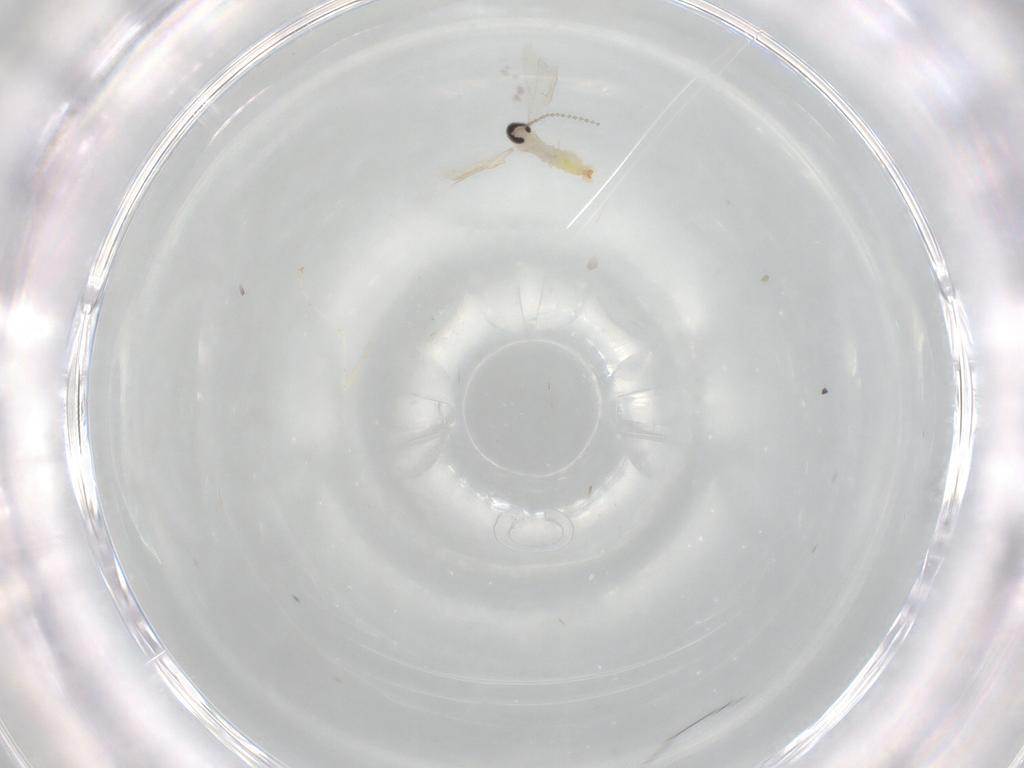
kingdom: Animalia
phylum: Arthropoda
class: Insecta
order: Diptera
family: Cecidomyiidae
